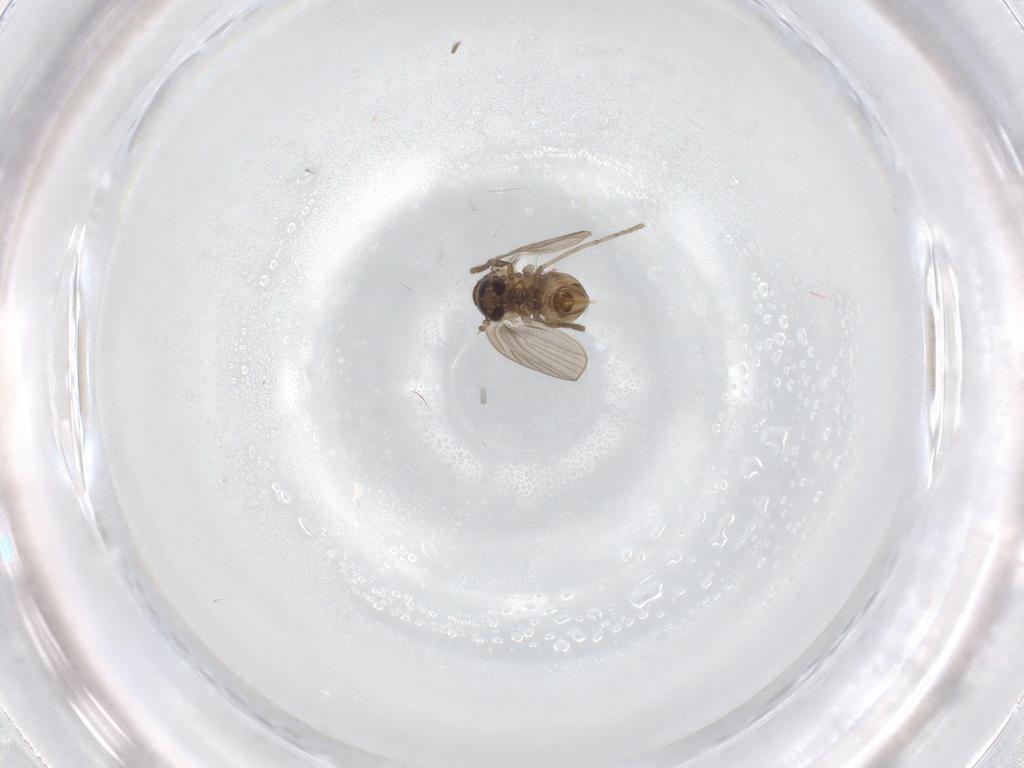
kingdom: Animalia
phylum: Arthropoda
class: Insecta
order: Diptera
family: Psychodidae
